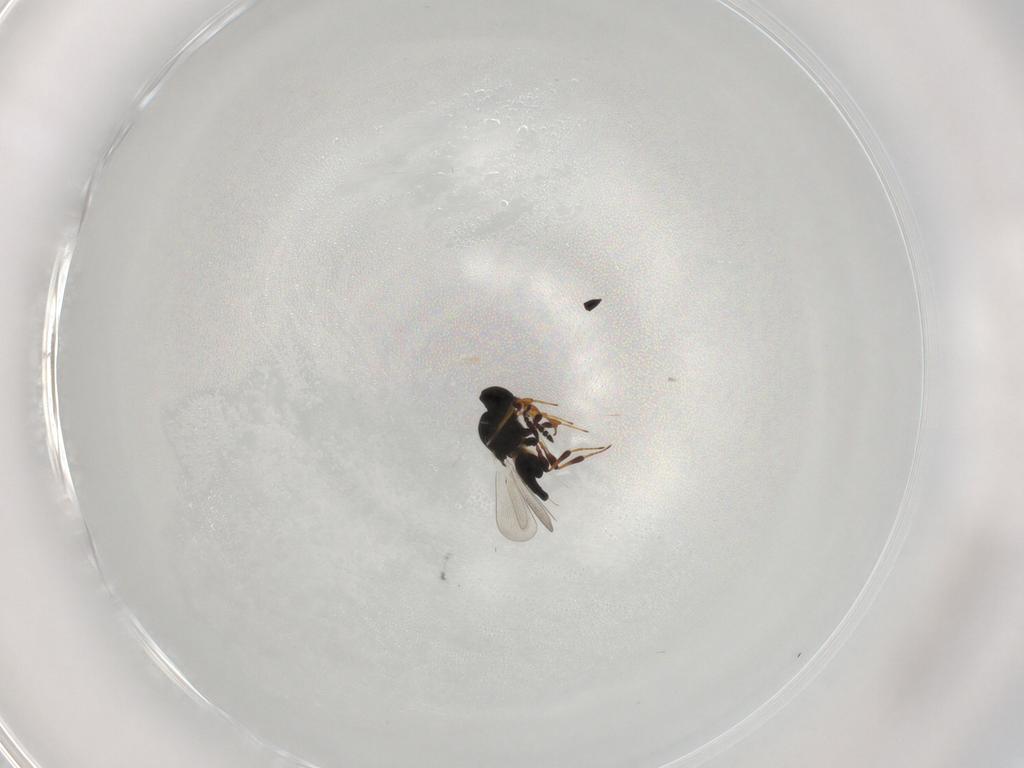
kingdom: Animalia
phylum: Arthropoda
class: Insecta
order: Hymenoptera
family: Platygastridae
